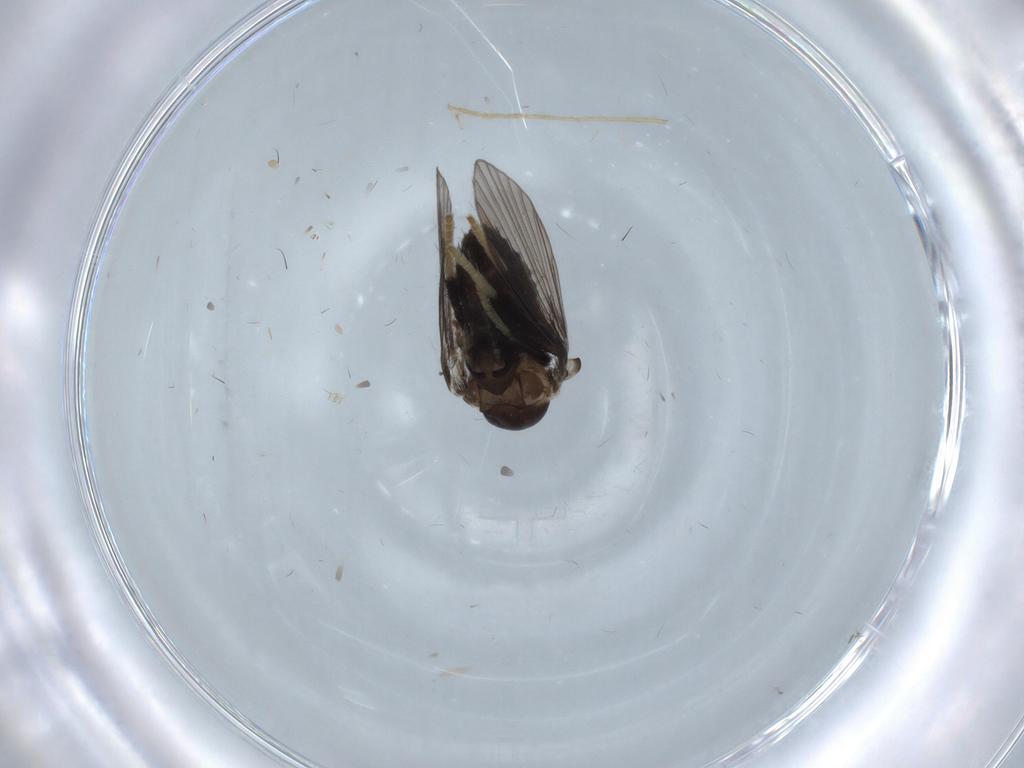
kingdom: Animalia
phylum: Arthropoda
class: Insecta
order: Diptera
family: Psychodidae
